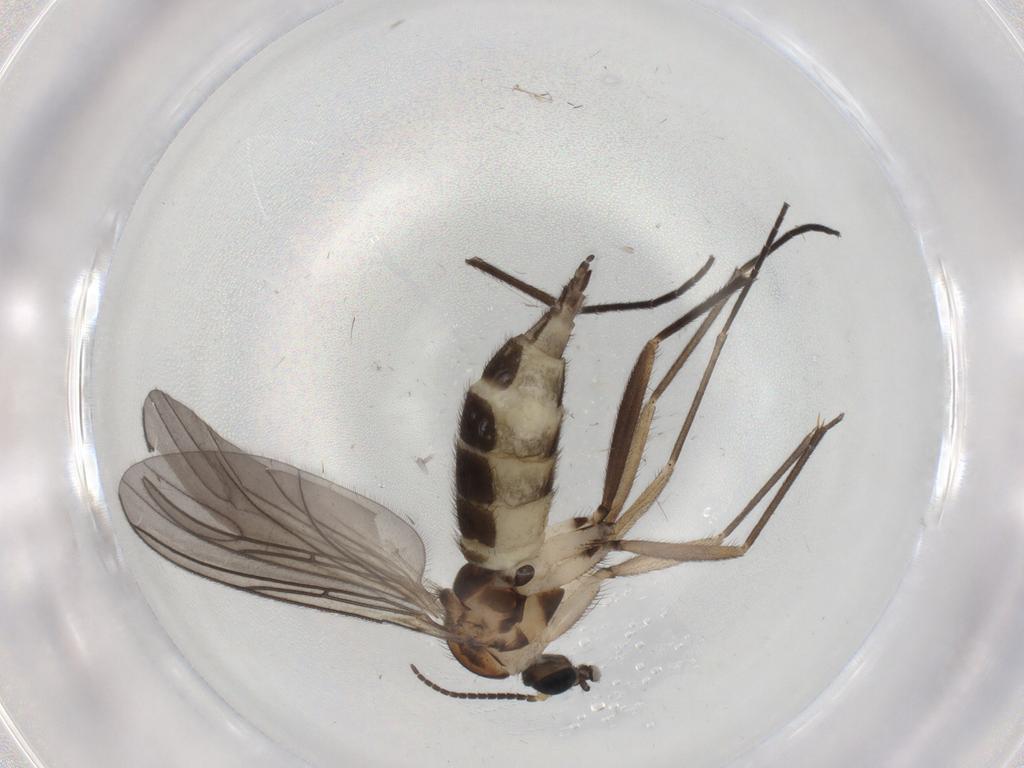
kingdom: Animalia
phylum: Arthropoda
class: Insecta
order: Diptera
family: Sciaridae
